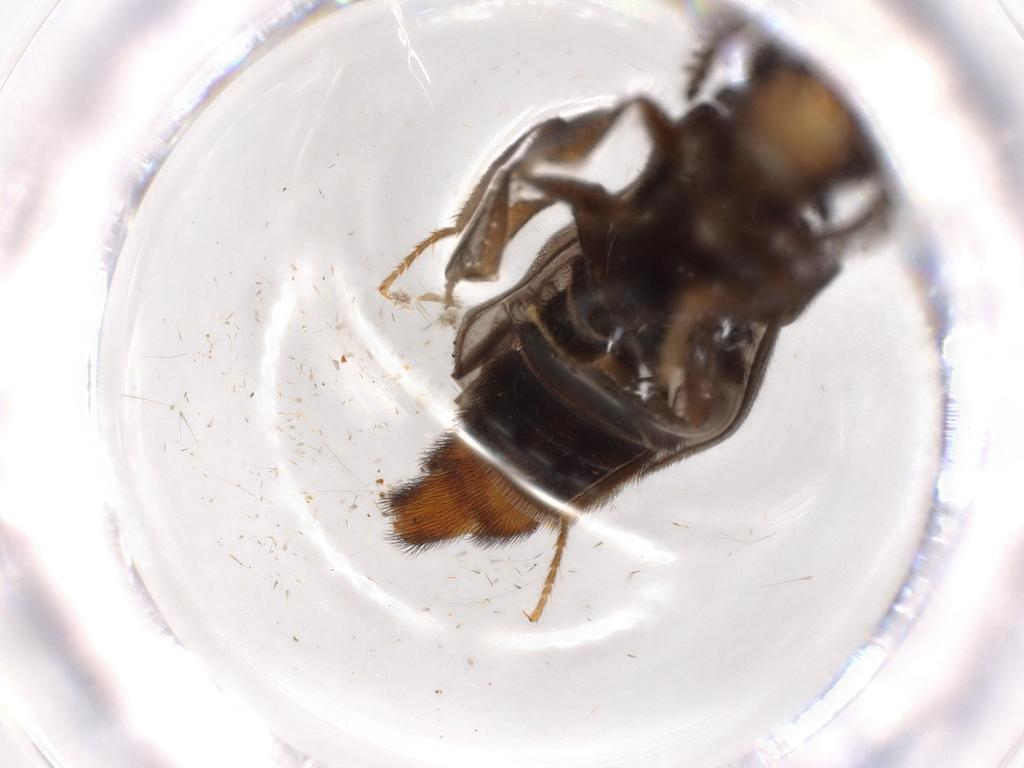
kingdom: Animalia
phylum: Arthropoda
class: Insecta
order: Coleoptera
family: Phengodidae
